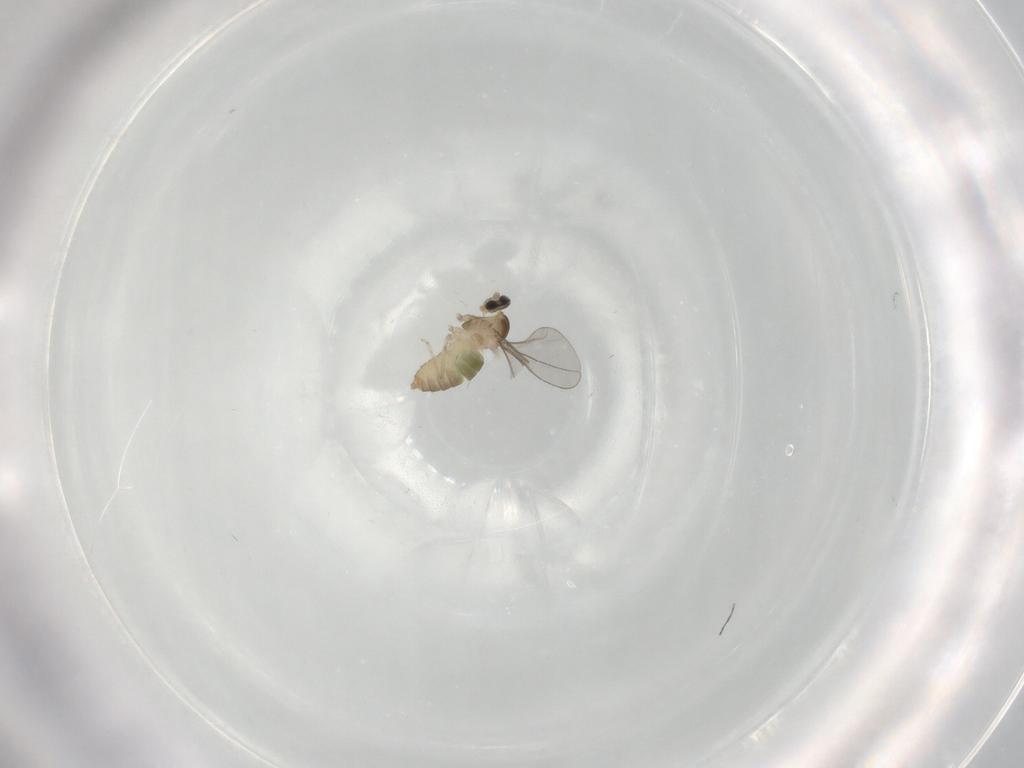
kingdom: Animalia
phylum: Arthropoda
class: Insecta
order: Diptera
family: Cecidomyiidae
